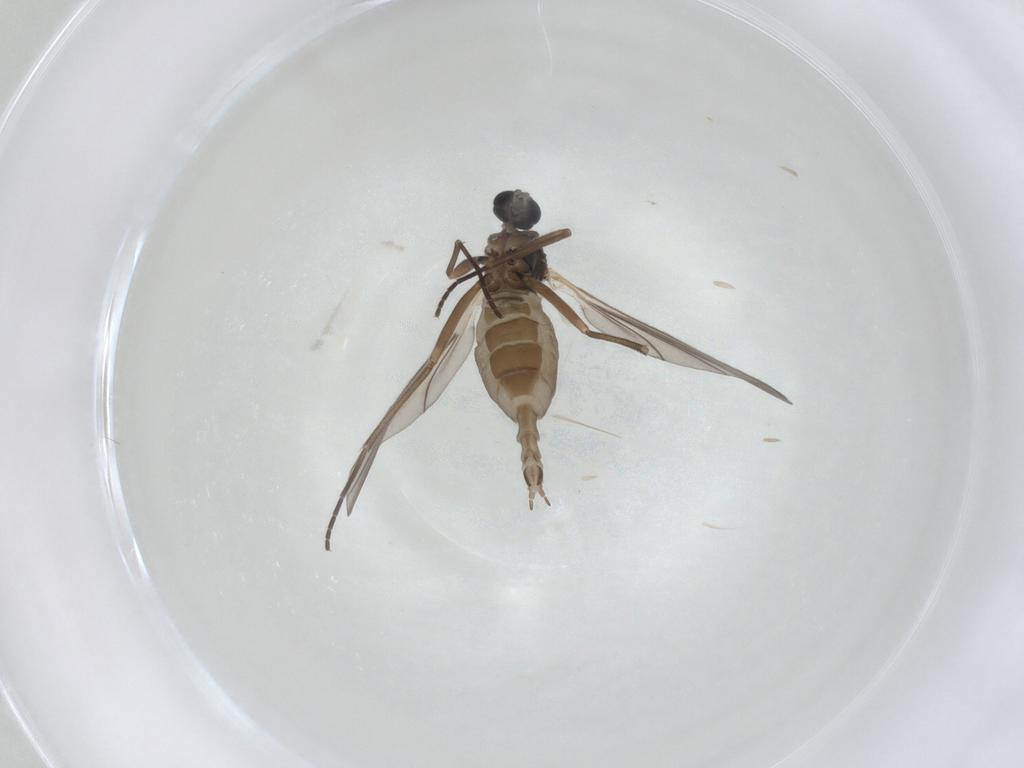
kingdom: Animalia
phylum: Arthropoda
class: Insecta
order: Diptera
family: Sciaridae
